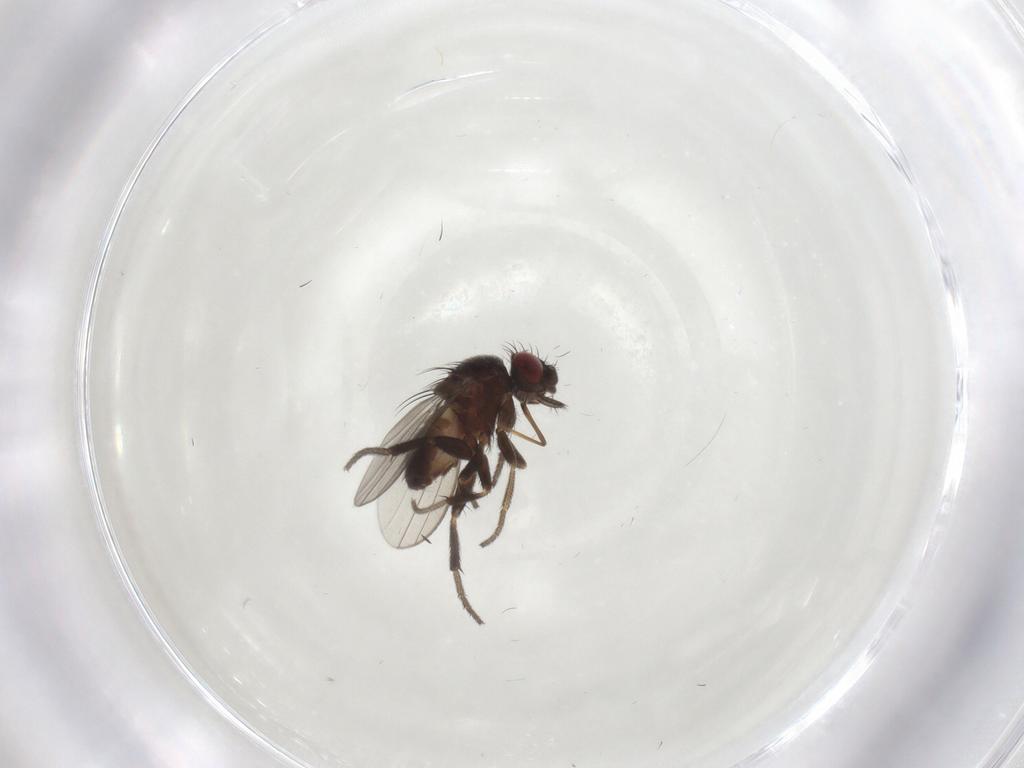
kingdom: Animalia
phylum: Arthropoda
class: Insecta
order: Diptera
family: Milichiidae
